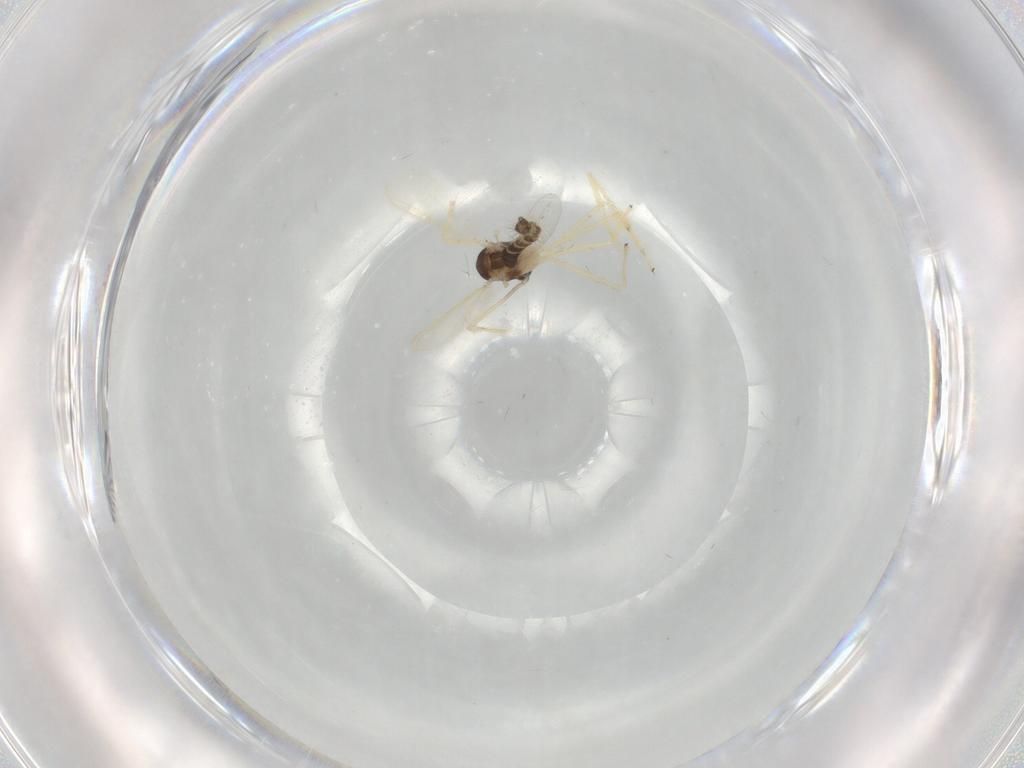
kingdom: Animalia
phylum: Arthropoda
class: Insecta
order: Diptera
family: Chironomidae
